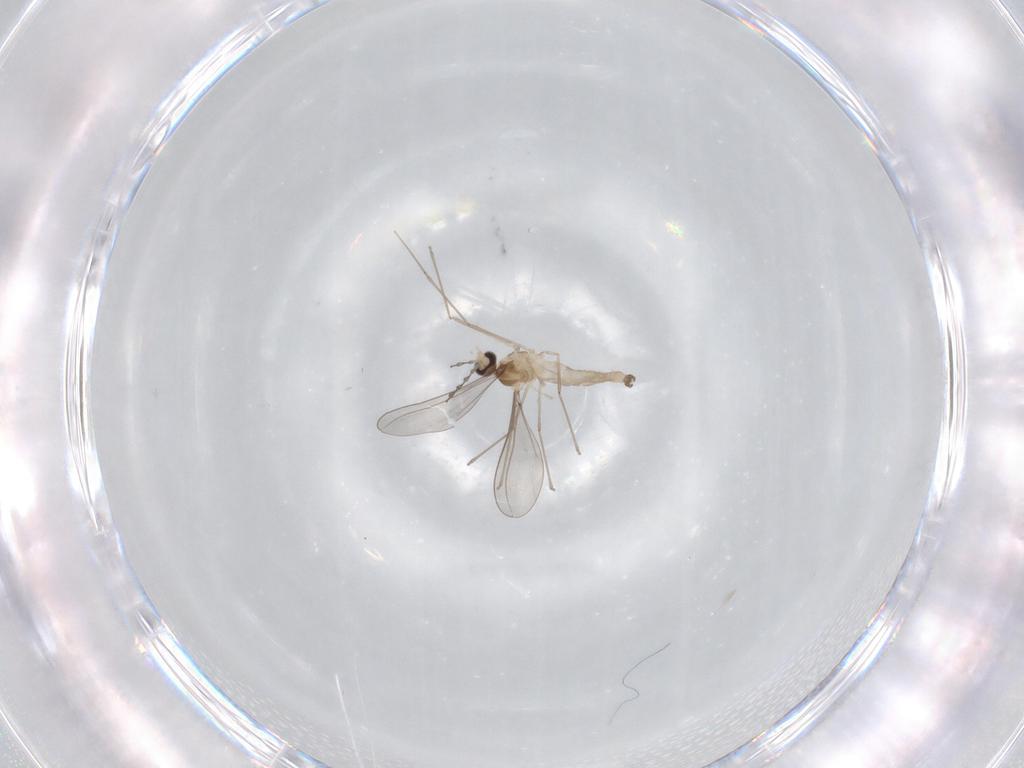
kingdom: Animalia
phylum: Arthropoda
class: Insecta
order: Diptera
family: Cecidomyiidae
